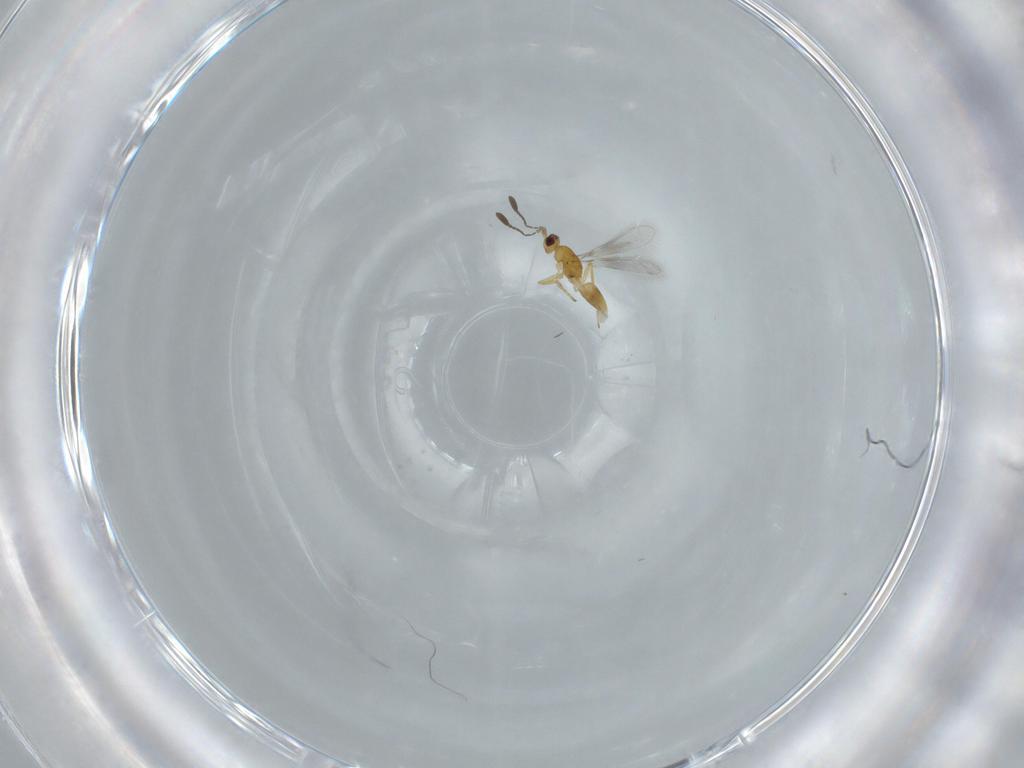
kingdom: Animalia
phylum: Arthropoda
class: Insecta
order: Hymenoptera
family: Mymaridae
